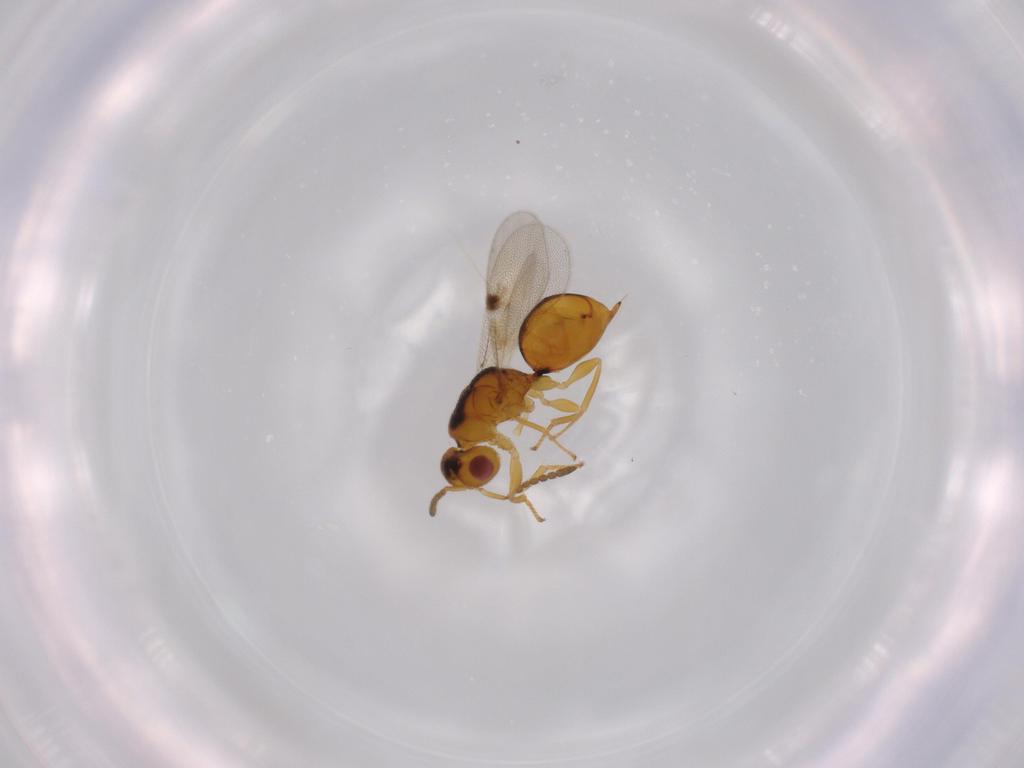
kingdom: Animalia
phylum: Arthropoda
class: Insecta
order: Hymenoptera
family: Eurytomidae
